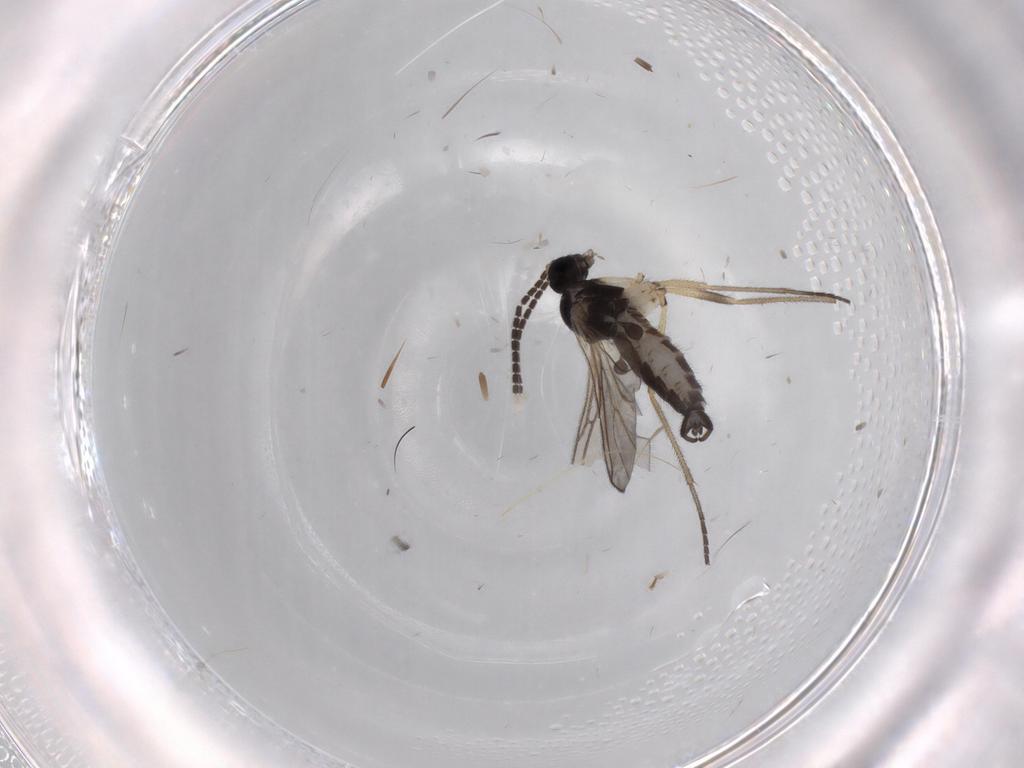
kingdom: Animalia
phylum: Arthropoda
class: Insecta
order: Diptera
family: Sciaridae
